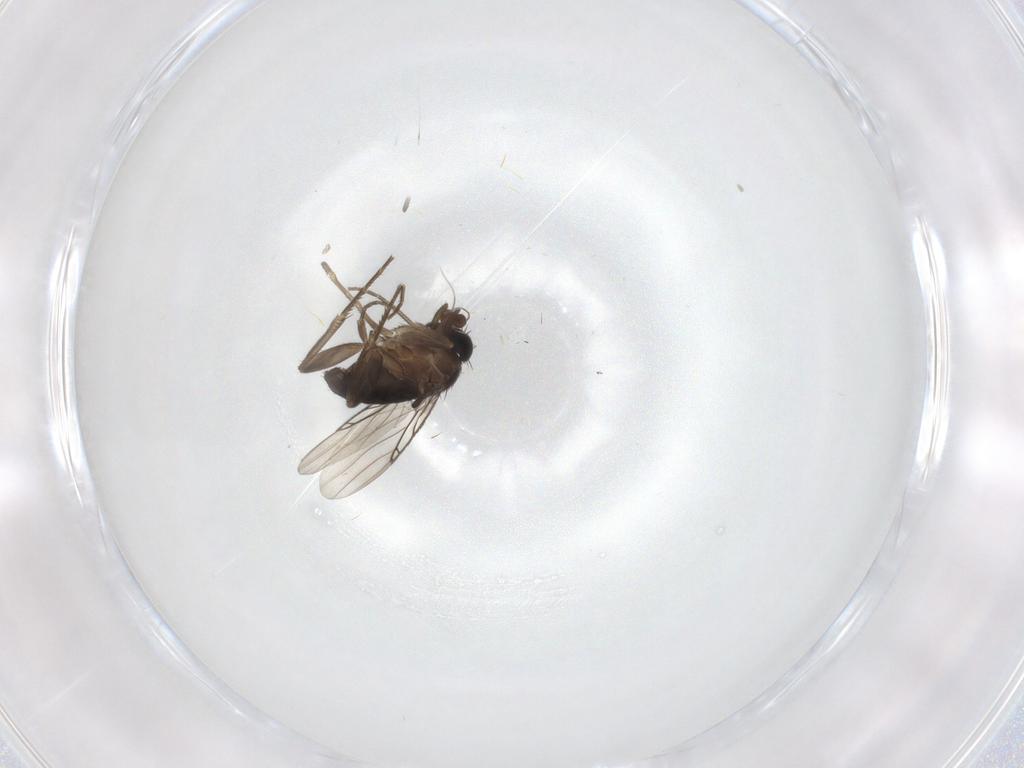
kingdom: Animalia
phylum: Arthropoda
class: Insecta
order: Diptera
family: Phoridae
